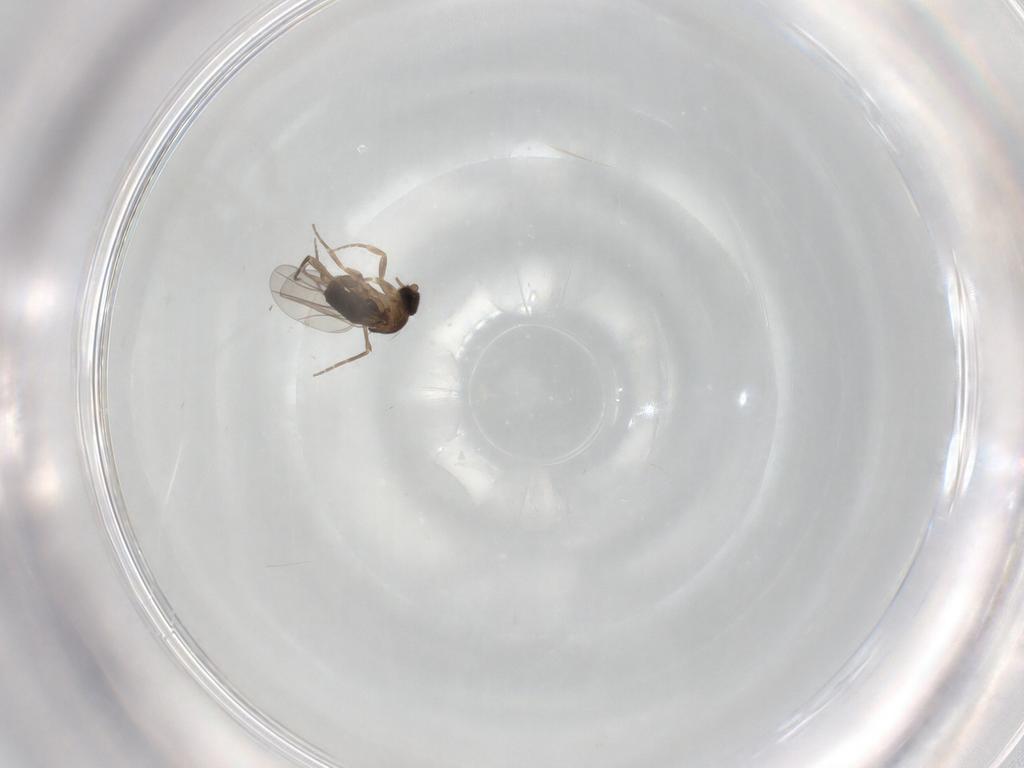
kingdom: Animalia
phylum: Arthropoda
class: Insecta
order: Diptera
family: Phoridae
